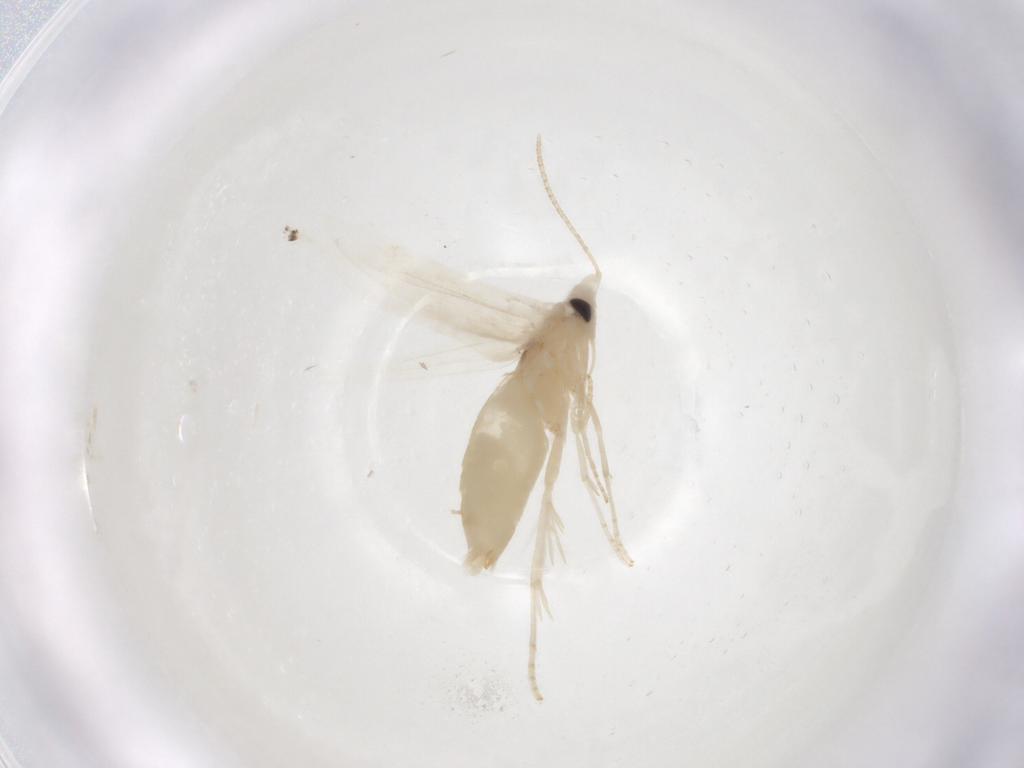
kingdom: Animalia
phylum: Arthropoda
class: Insecta
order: Lepidoptera
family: Gracillariidae
